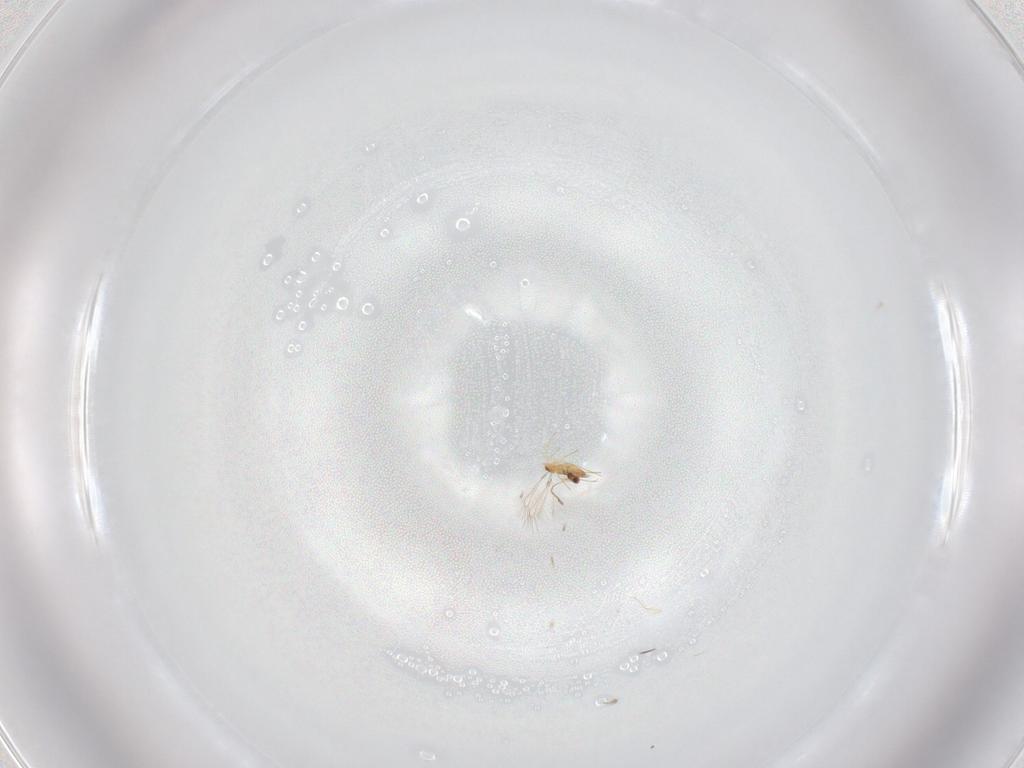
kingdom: Animalia
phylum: Arthropoda
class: Insecta
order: Hymenoptera
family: Mymaridae
